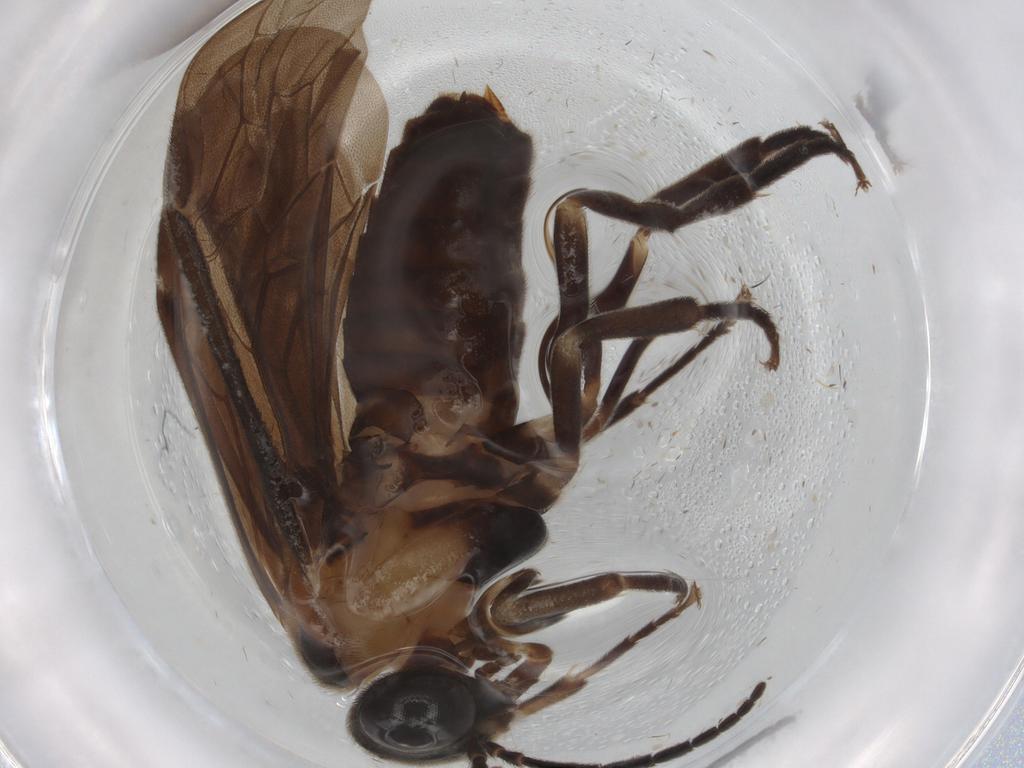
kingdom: Animalia
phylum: Arthropoda
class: Insecta
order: Hymenoptera
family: Tenthredinidae
